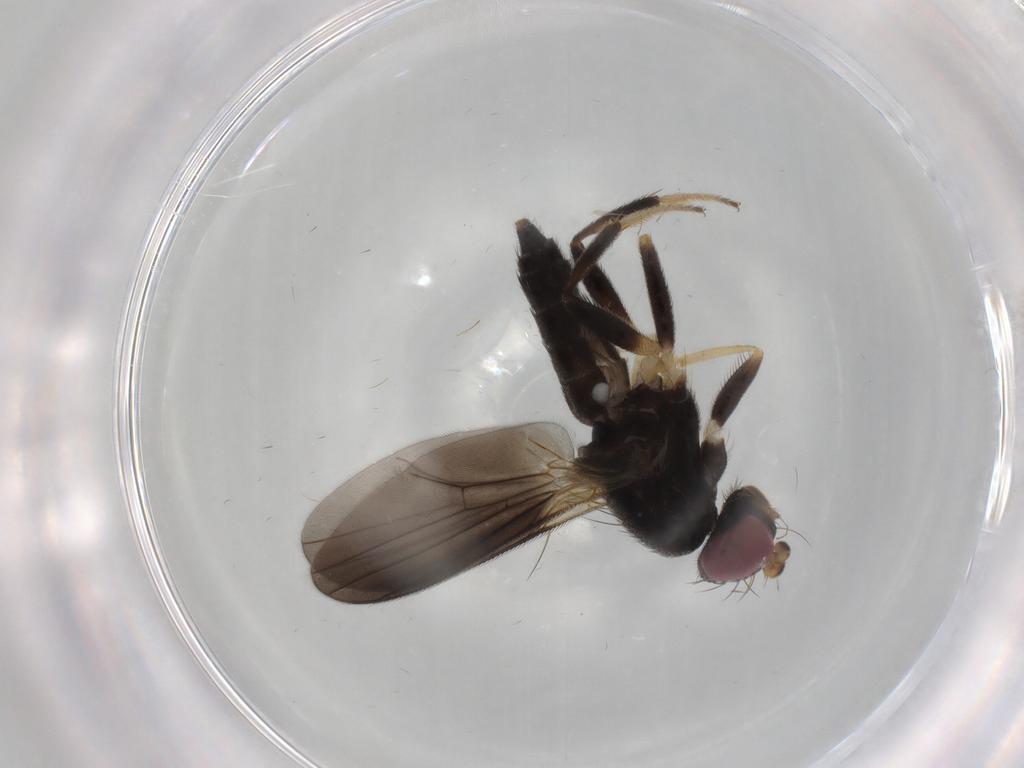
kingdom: Animalia
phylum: Arthropoda
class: Insecta
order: Diptera
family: Clusiidae
